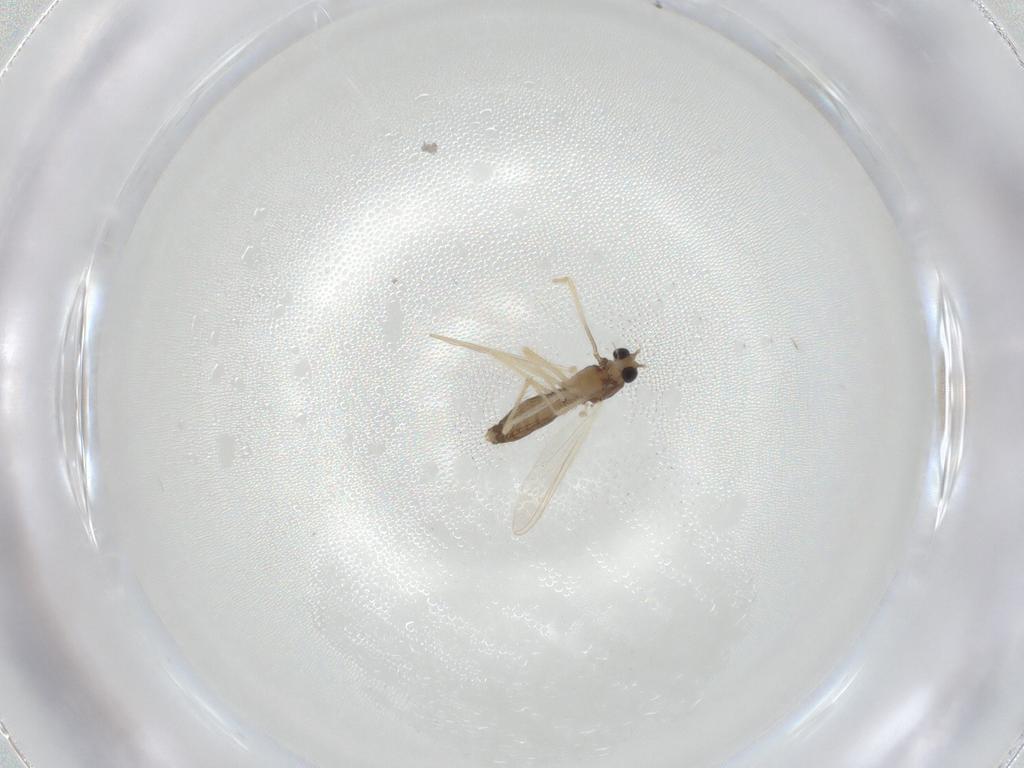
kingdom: Animalia
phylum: Arthropoda
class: Insecta
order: Diptera
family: Chironomidae
